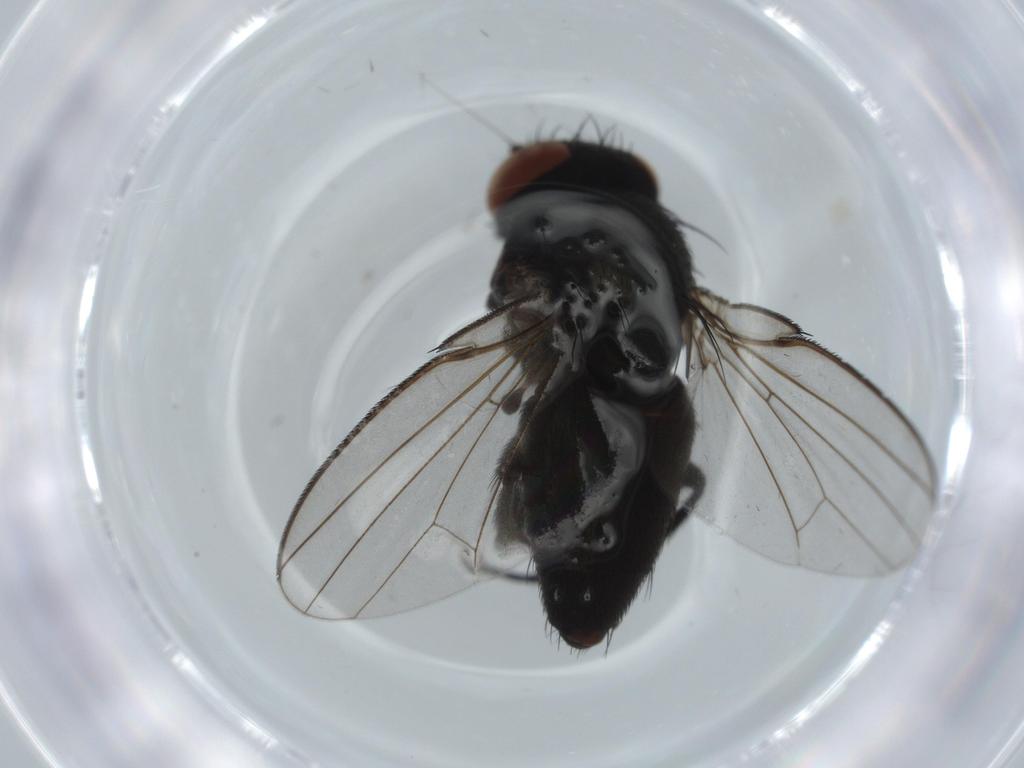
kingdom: Animalia
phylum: Arthropoda
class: Insecta
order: Diptera
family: Milichiidae
